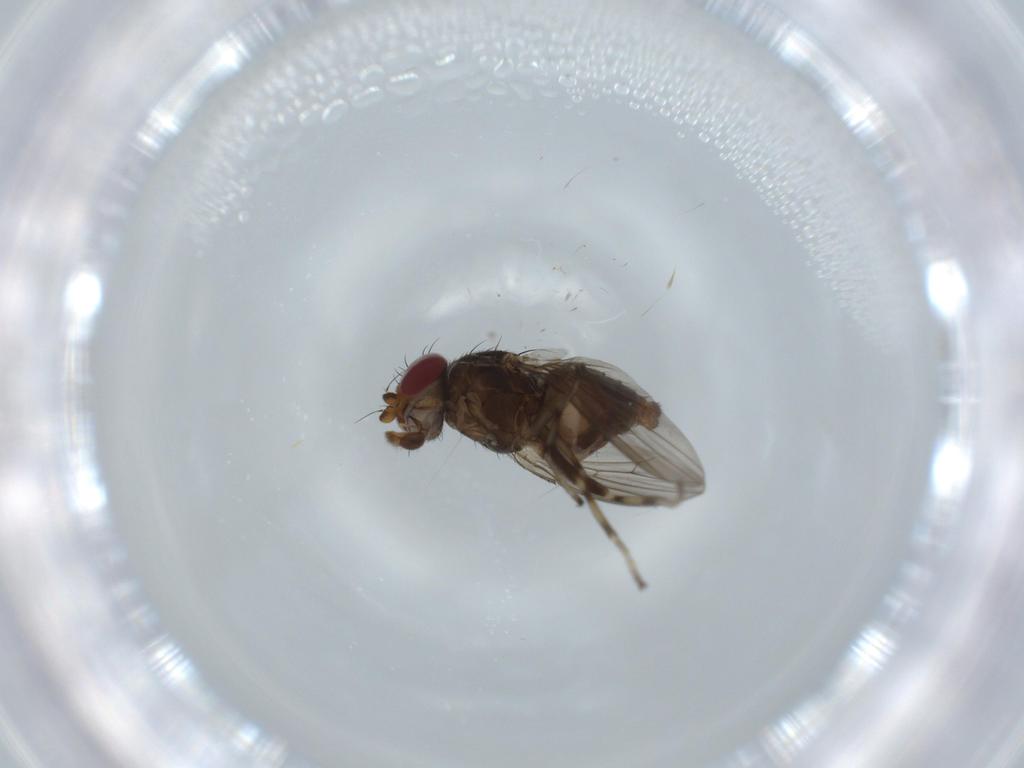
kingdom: Animalia
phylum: Arthropoda
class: Insecta
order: Diptera
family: Heleomyzidae
